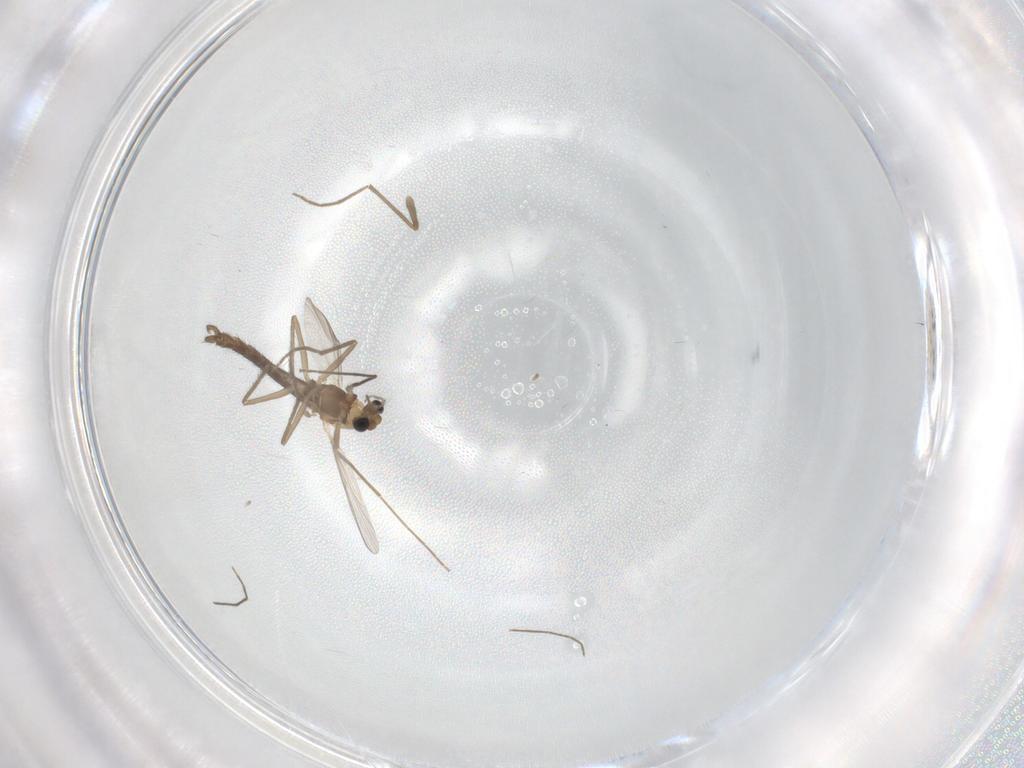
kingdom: Animalia
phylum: Arthropoda
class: Insecta
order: Diptera
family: Chironomidae
